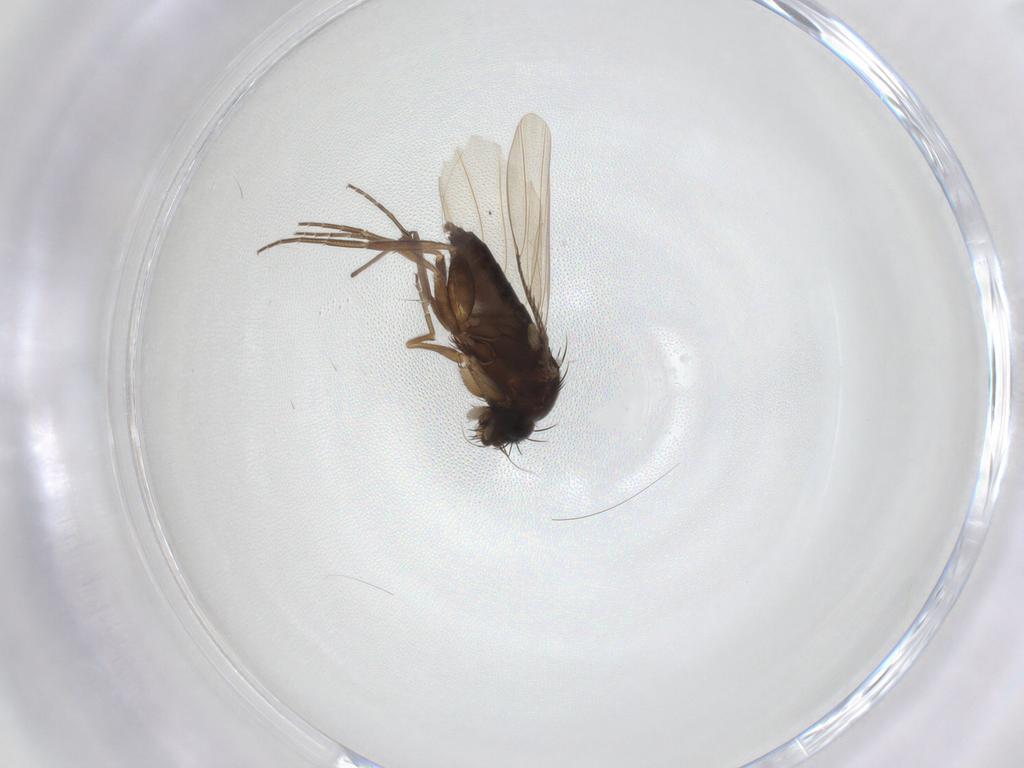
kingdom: Animalia
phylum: Arthropoda
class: Insecta
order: Diptera
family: Phoridae
